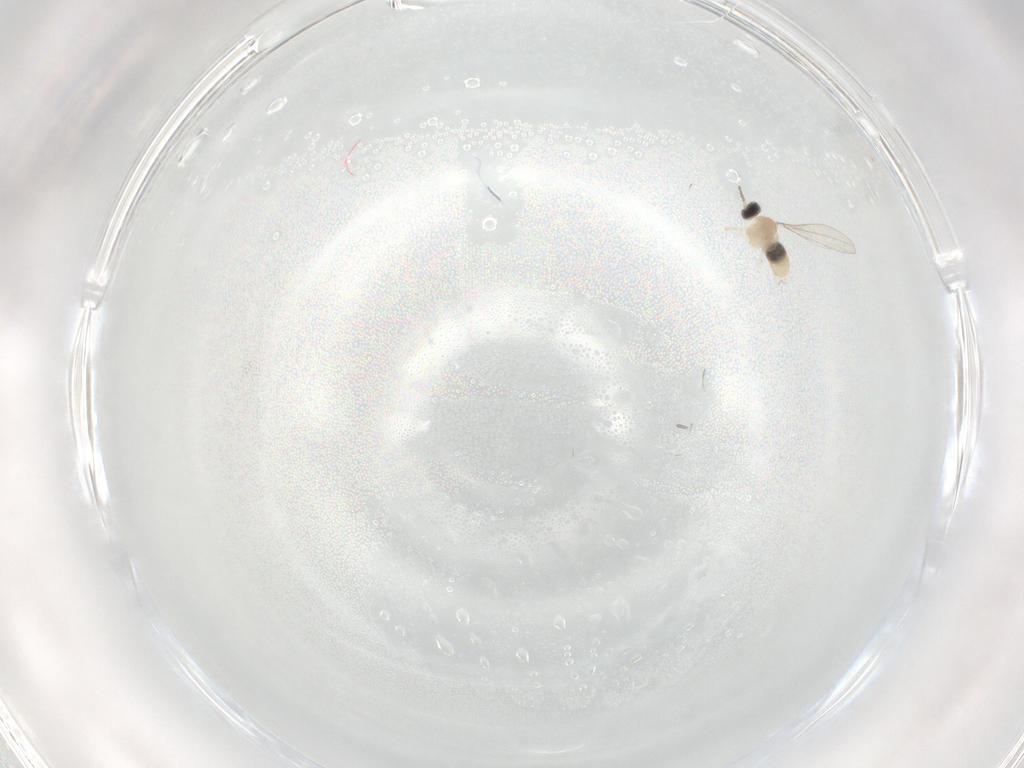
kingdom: Animalia
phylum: Arthropoda
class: Insecta
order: Diptera
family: Cecidomyiidae
